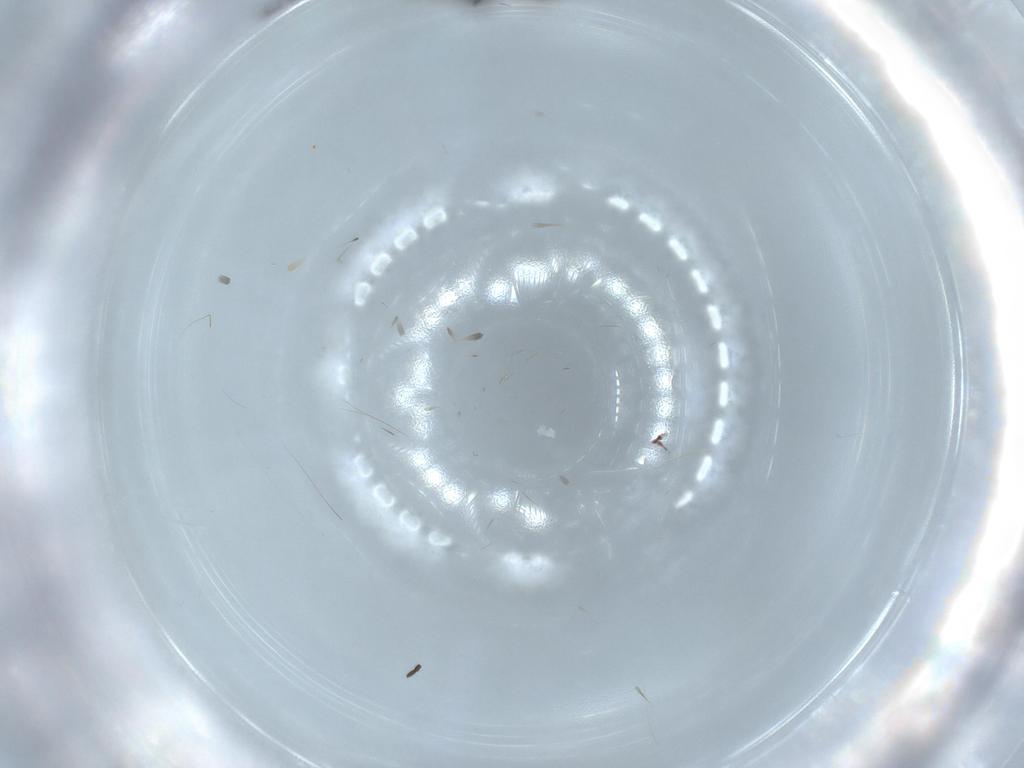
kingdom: Animalia
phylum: Arthropoda
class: Insecta
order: Diptera
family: Sciaridae
